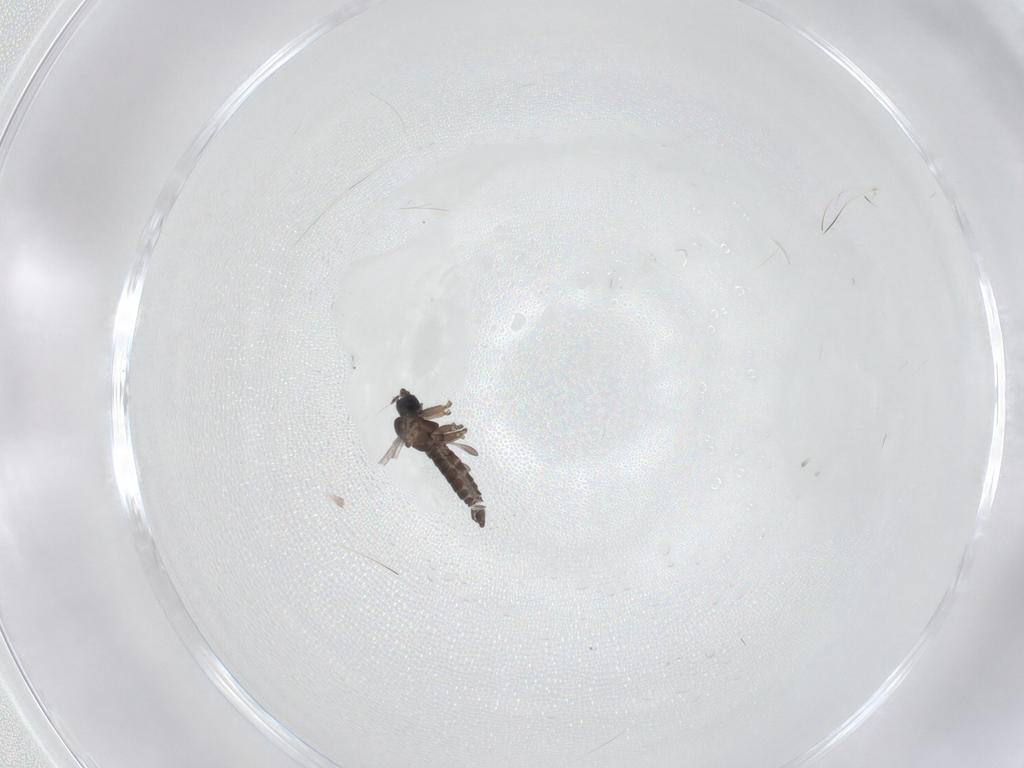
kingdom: Animalia
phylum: Arthropoda
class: Insecta
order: Diptera
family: Sciaridae
